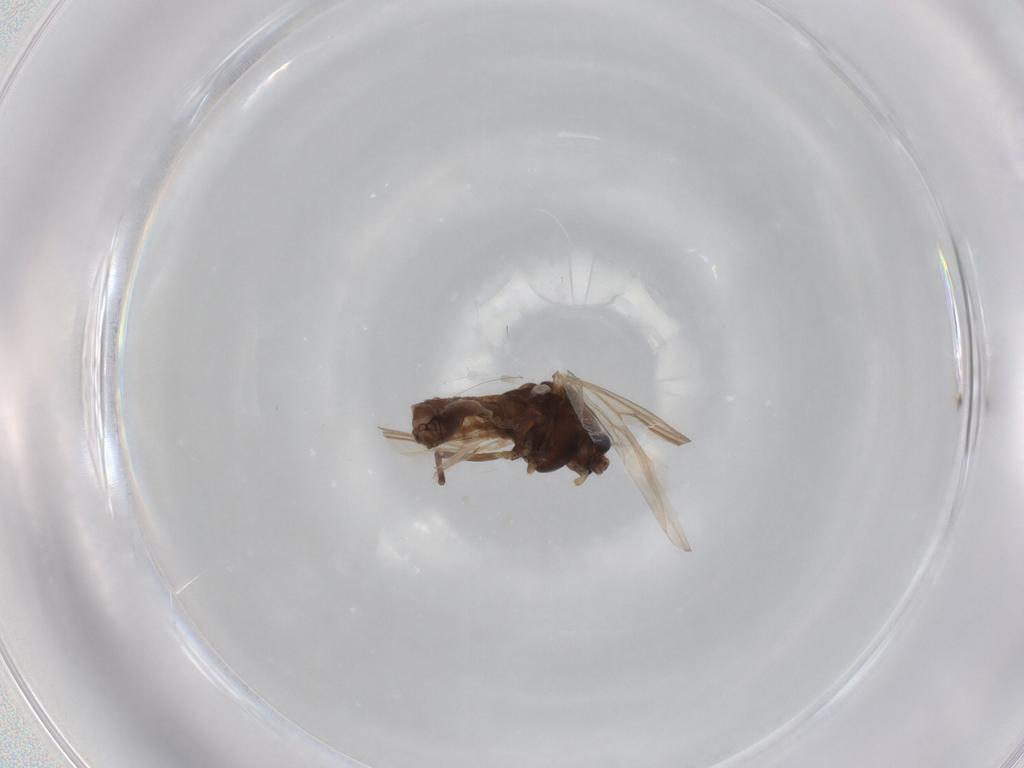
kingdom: Animalia
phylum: Arthropoda
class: Insecta
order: Diptera
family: Chironomidae
